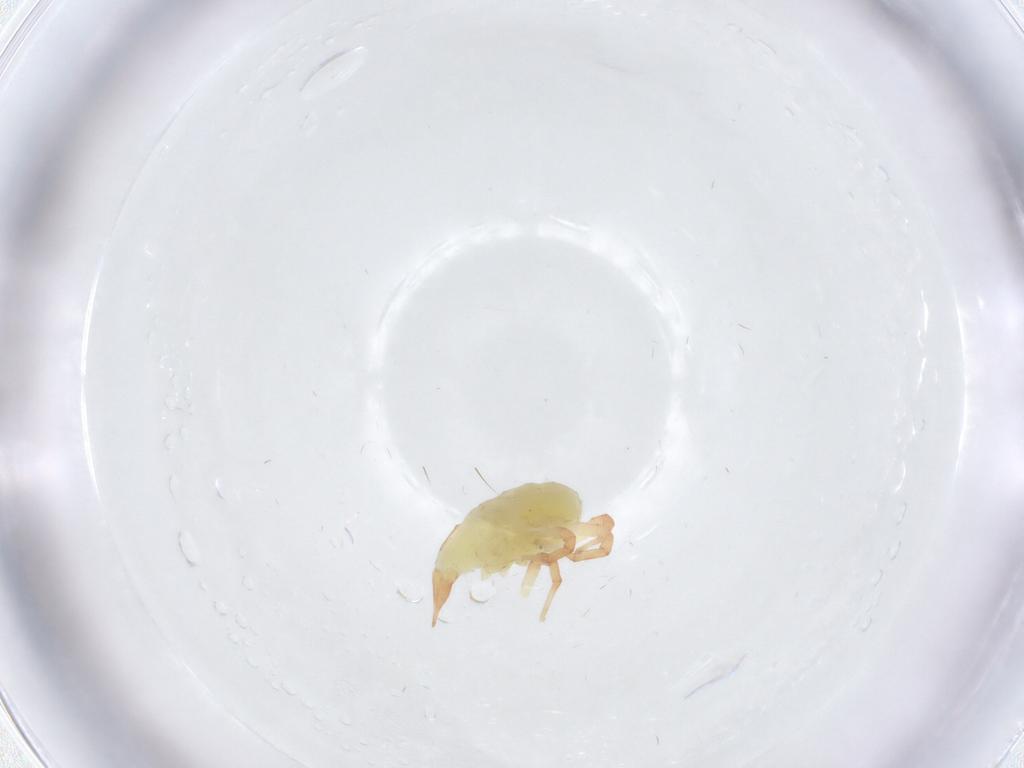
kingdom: Animalia
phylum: Arthropoda
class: Arachnida
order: Trombidiformes
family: Bdellidae
